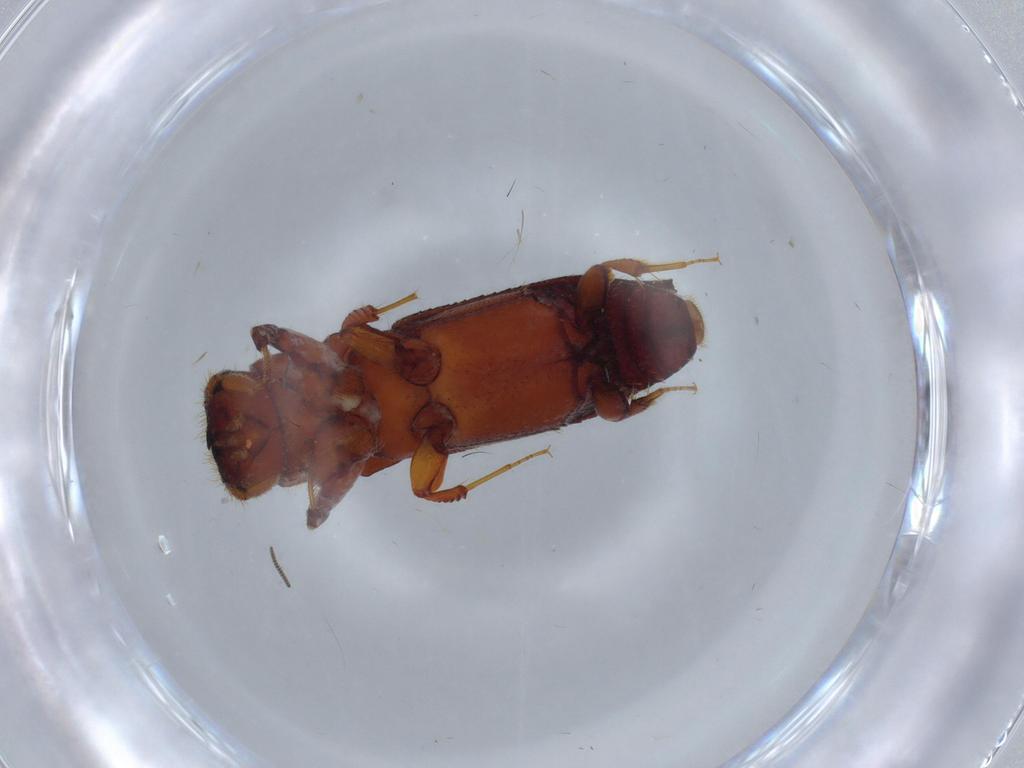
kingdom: Animalia
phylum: Arthropoda
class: Insecta
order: Coleoptera
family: Curculionidae
